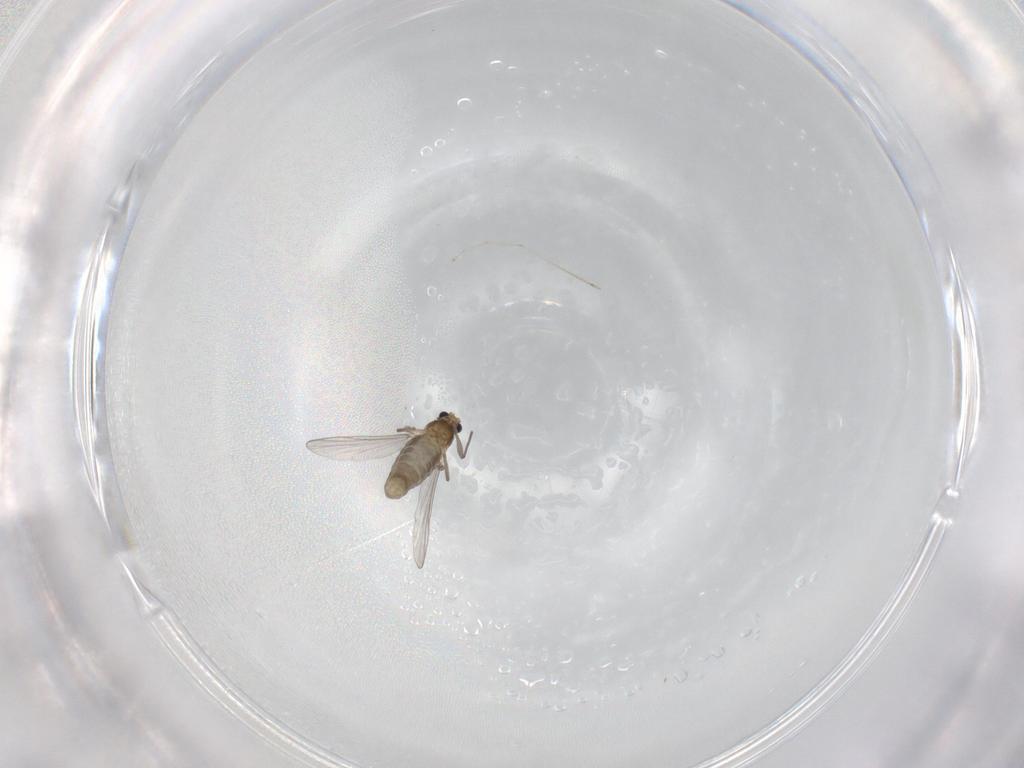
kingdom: Animalia
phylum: Arthropoda
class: Insecta
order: Diptera
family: Chironomidae
